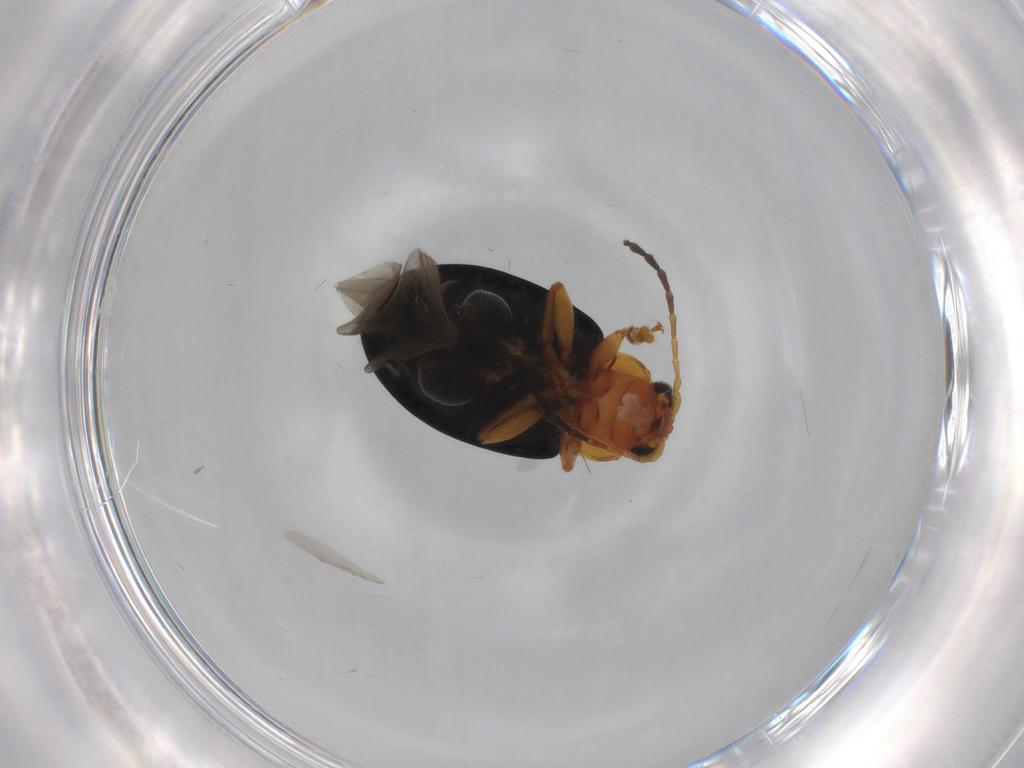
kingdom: Animalia
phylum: Arthropoda
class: Insecta
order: Coleoptera
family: Chrysomelidae
